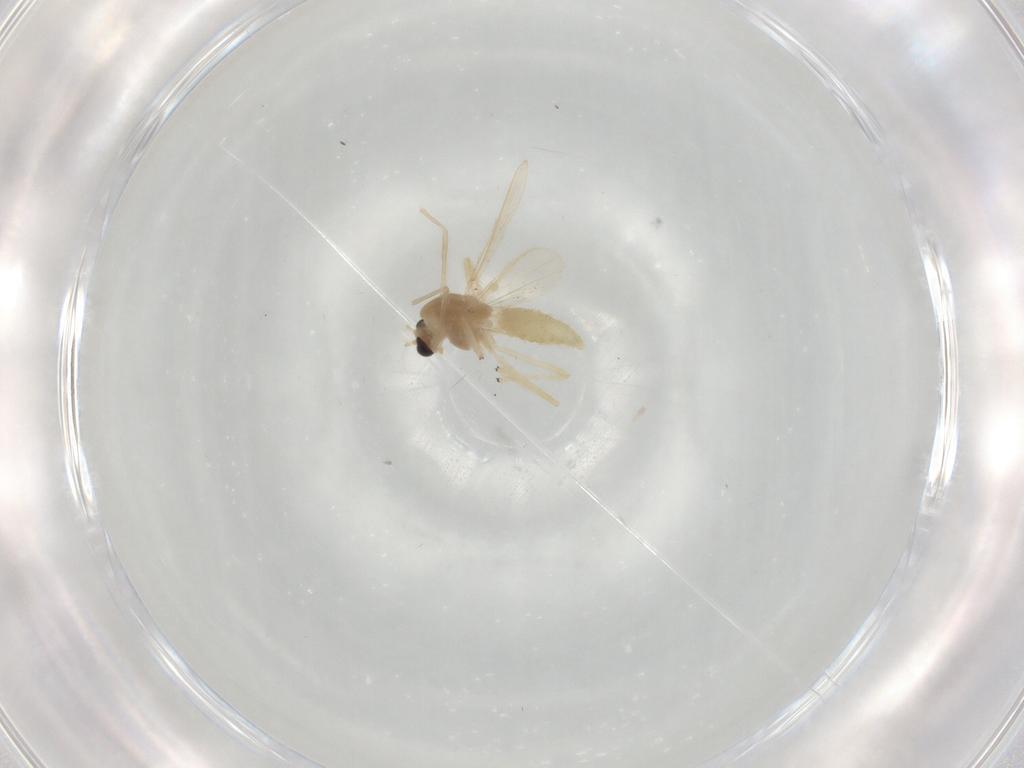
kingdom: Animalia
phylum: Arthropoda
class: Insecta
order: Diptera
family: Chironomidae
